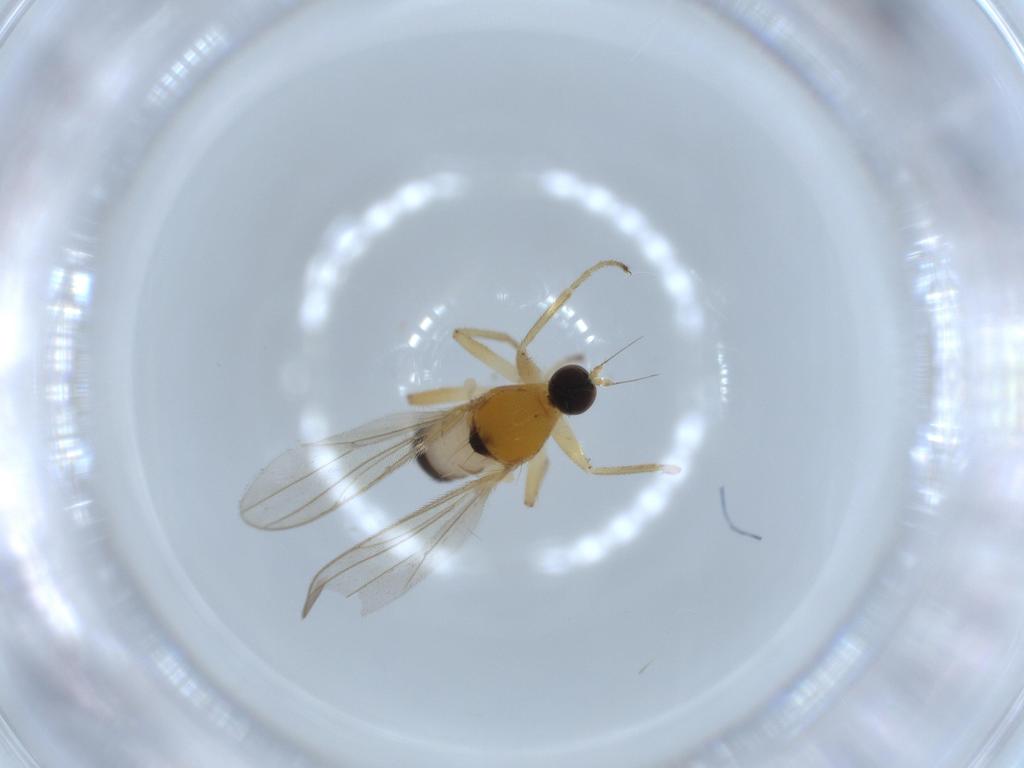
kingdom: Animalia
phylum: Arthropoda
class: Insecta
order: Diptera
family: Hybotidae
